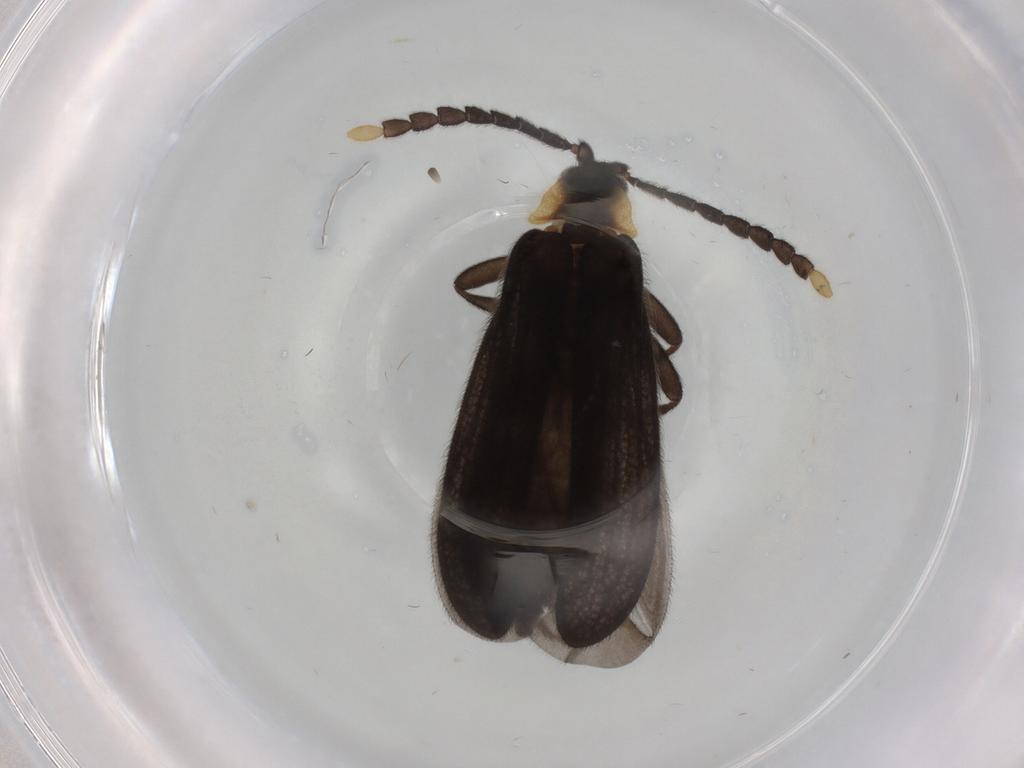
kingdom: Animalia
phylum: Arthropoda
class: Insecta
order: Coleoptera
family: Lycidae
